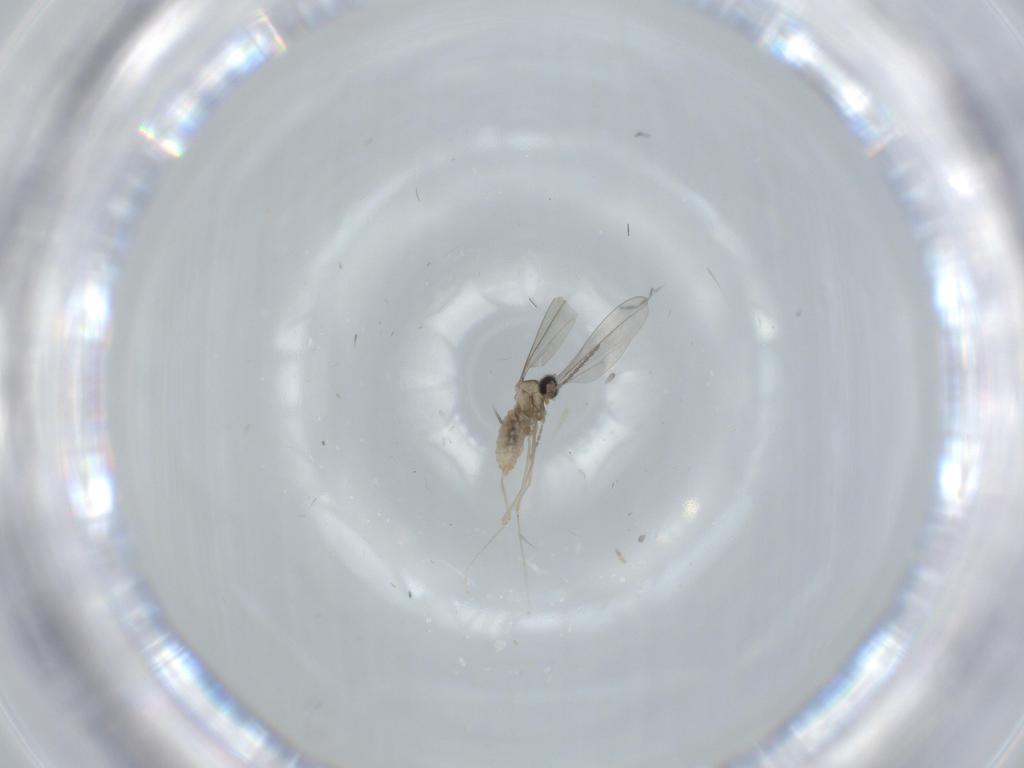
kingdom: Animalia
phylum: Arthropoda
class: Insecta
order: Diptera
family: Cecidomyiidae
